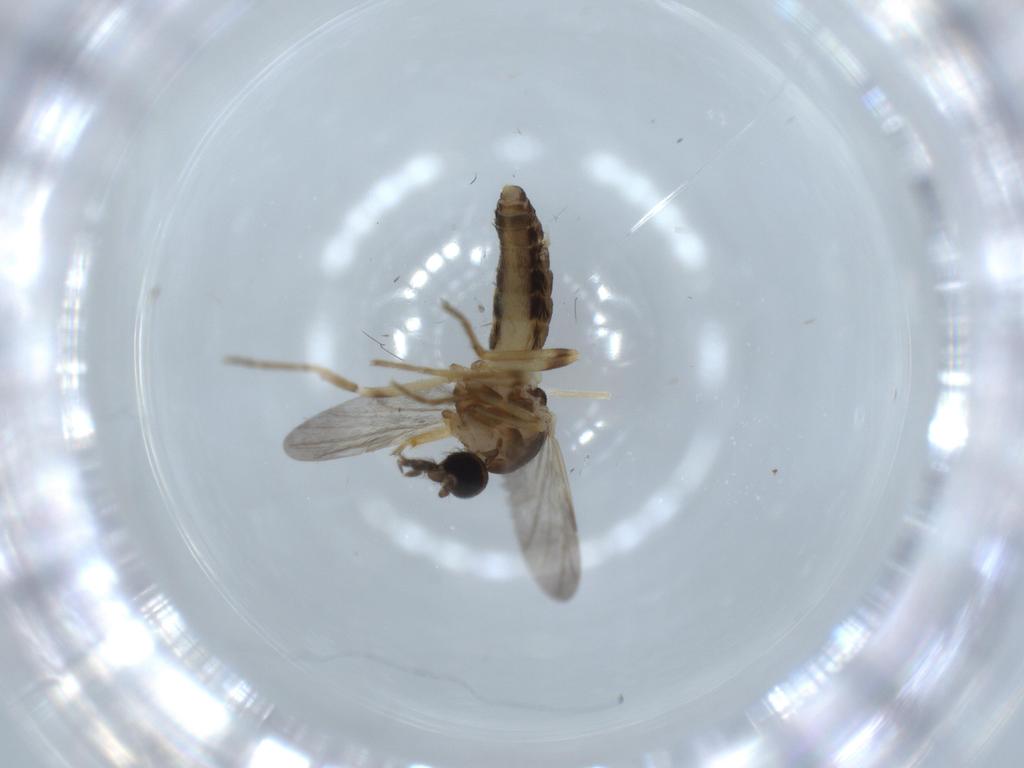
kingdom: Animalia
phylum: Arthropoda
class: Insecta
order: Diptera
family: Ceratopogonidae
